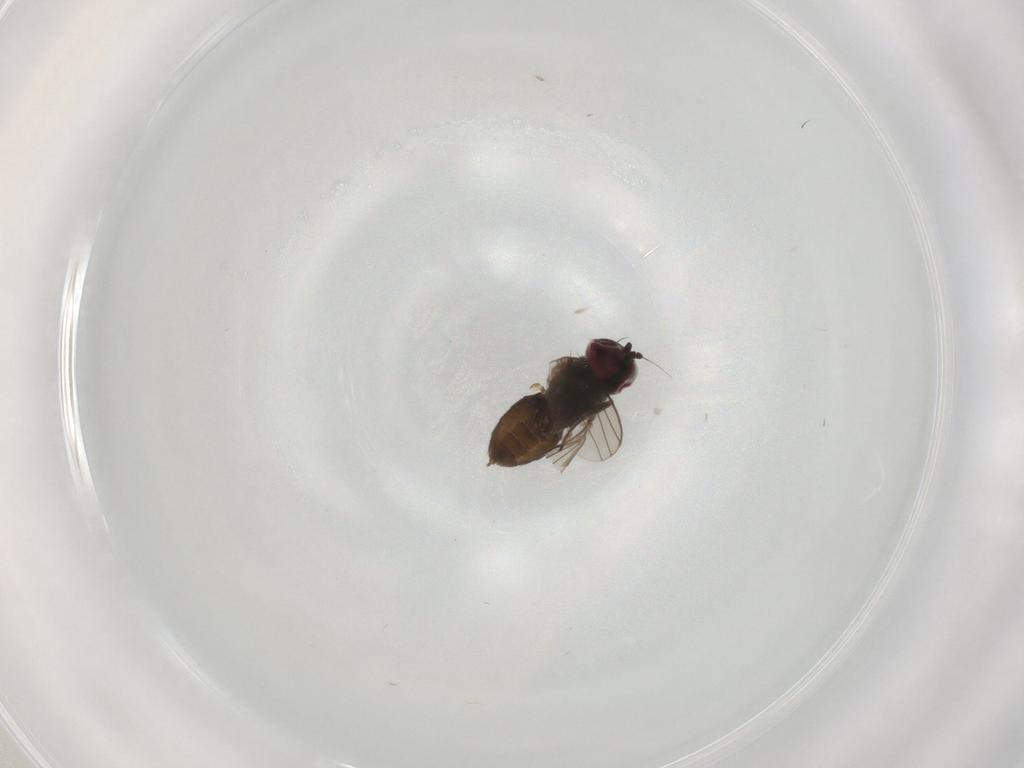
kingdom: Animalia
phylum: Arthropoda
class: Insecta
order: Diptera
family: Dolichopodidae
